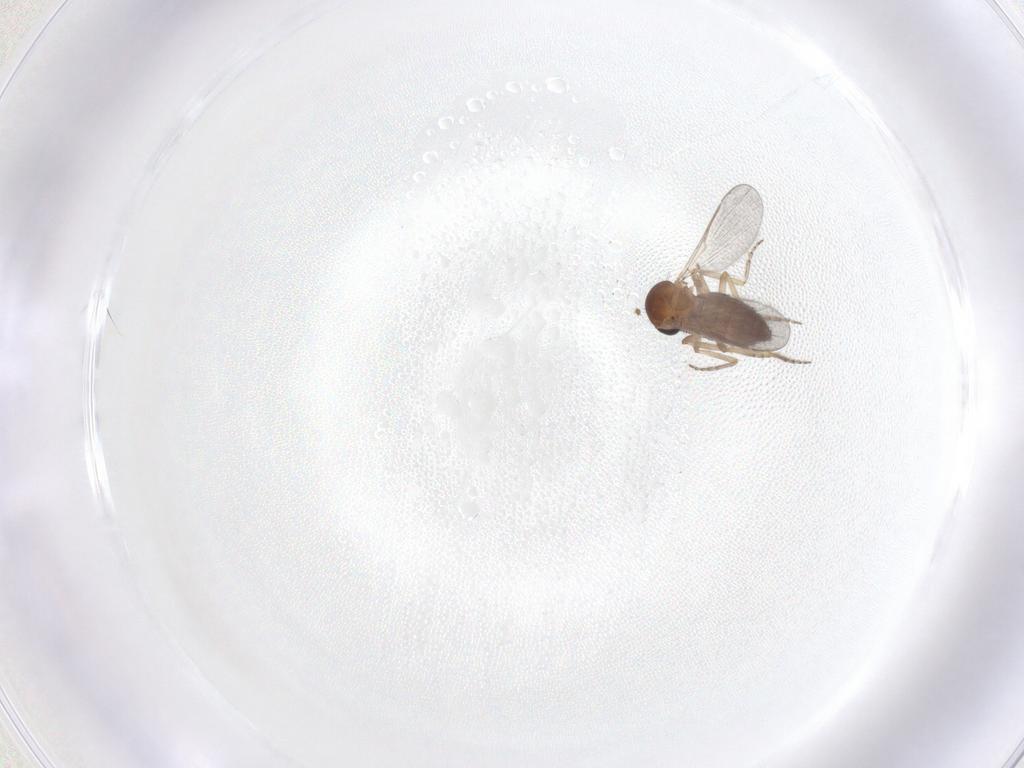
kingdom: Animalia
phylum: Arthropoda
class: Insecta
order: Diptera
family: Ceratopogonidae
